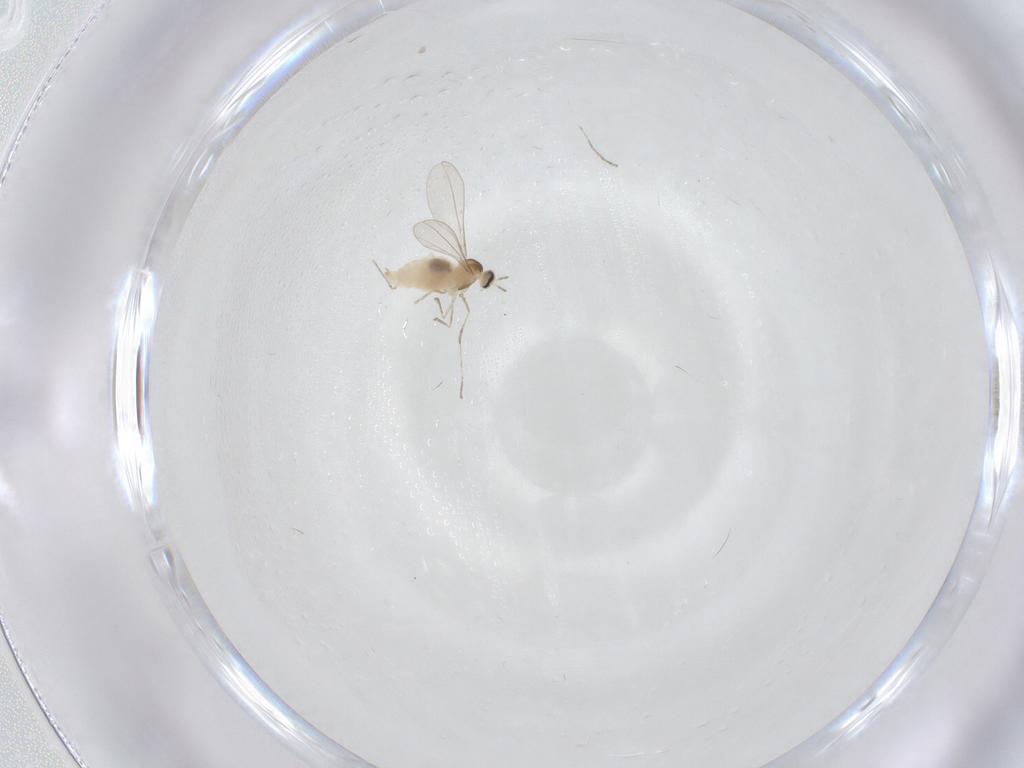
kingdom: Animalia
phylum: Arthropoda
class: Insecta
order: Diptera
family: Cecidomyiidae
